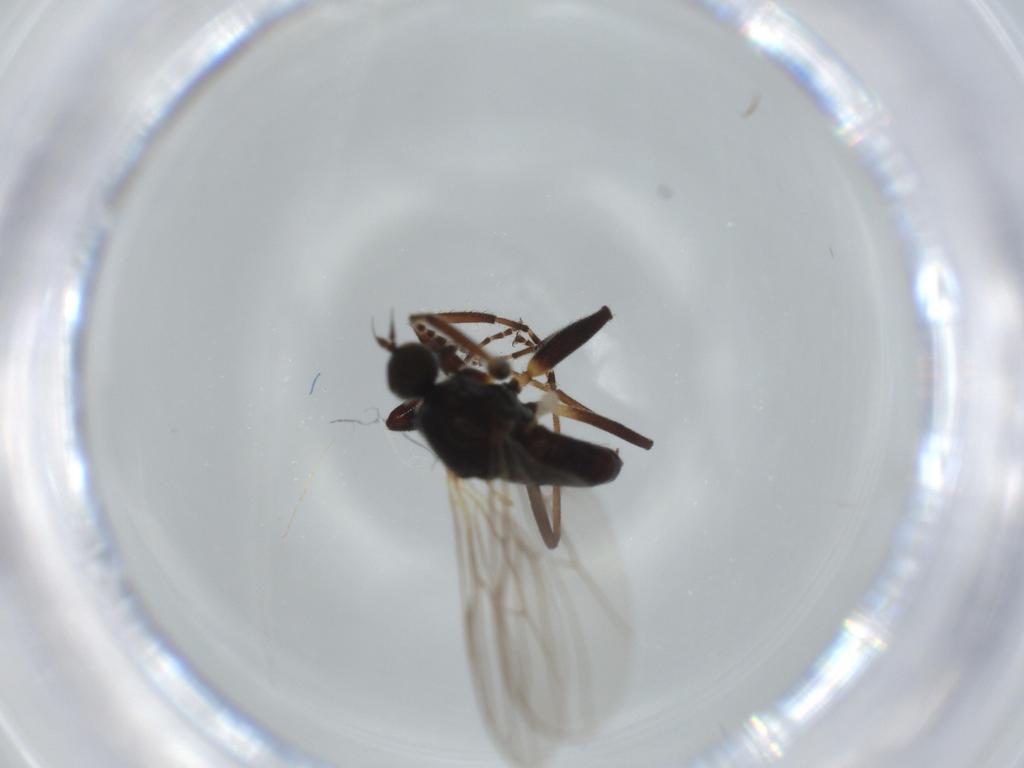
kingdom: Animalia
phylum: Arthropoda
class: Insecta
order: Diptera
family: Hybotidae
